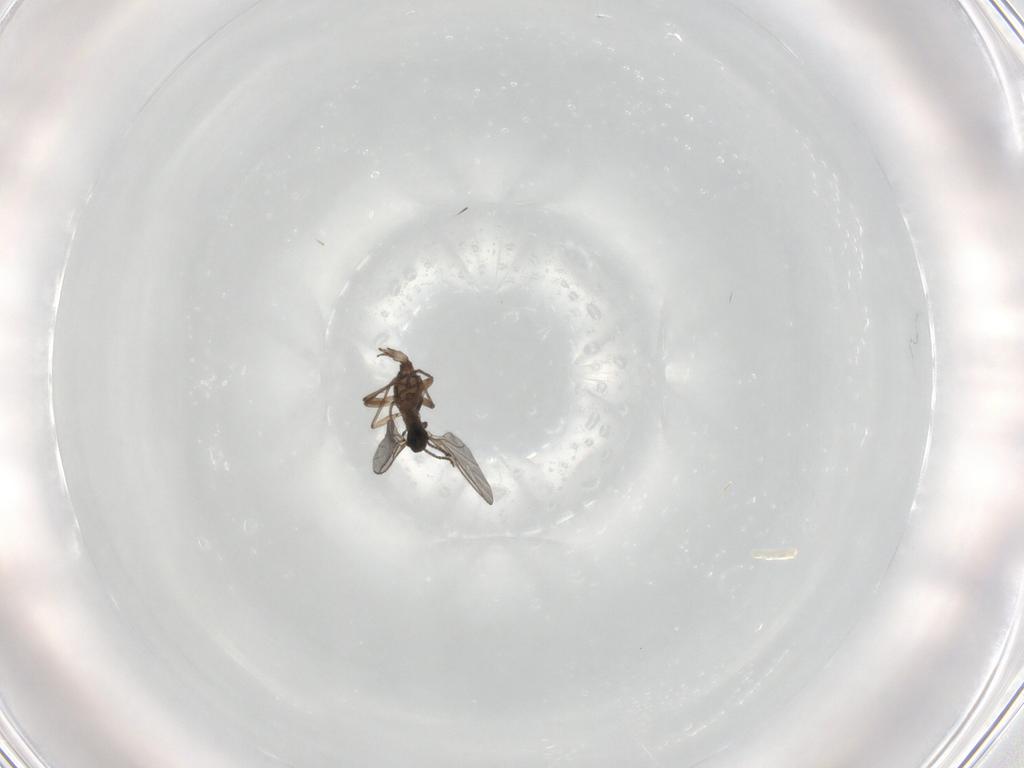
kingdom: Animalia
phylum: Arthropoda
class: Insecta
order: Diptera
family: Sciaridae
